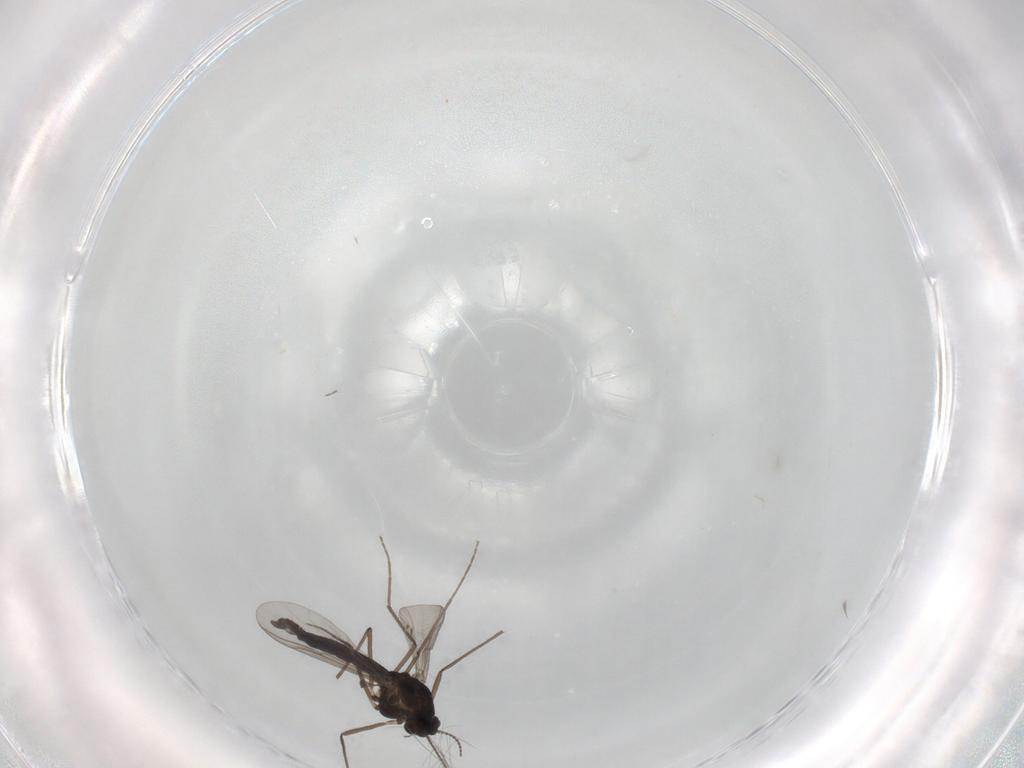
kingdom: Animalia
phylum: Arthropoda
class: Insecta
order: Diptera
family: Chironomidae
